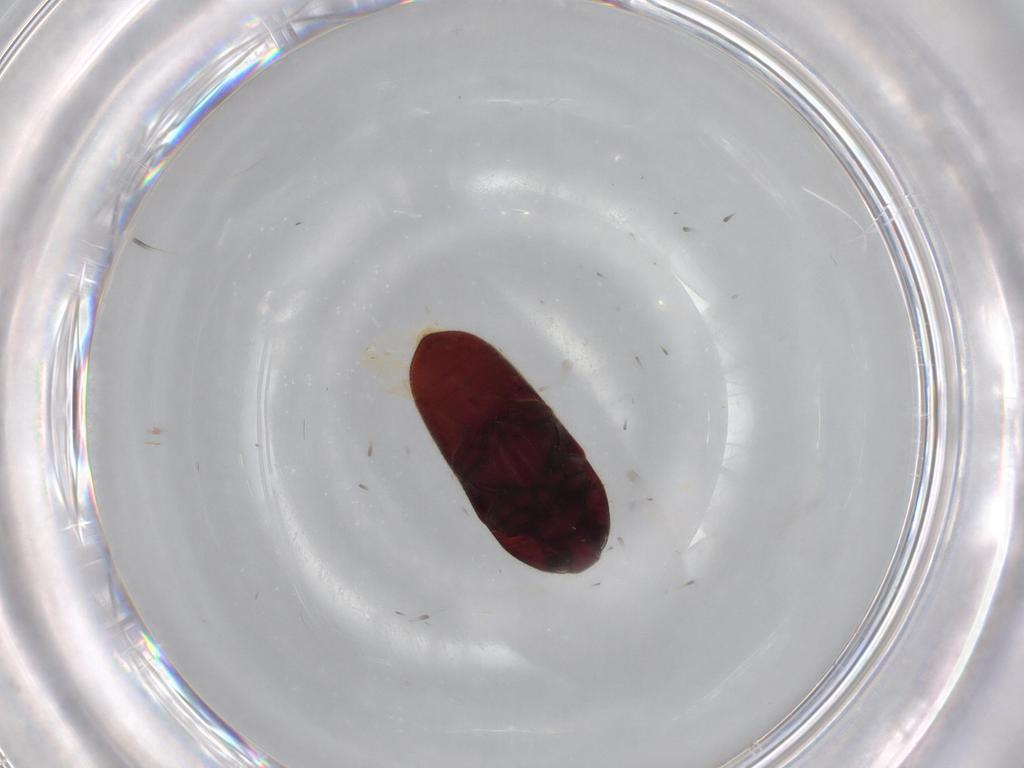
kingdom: Animalia
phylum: Arthropoda
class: Insecta
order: Coleoptera
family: Throscidae
